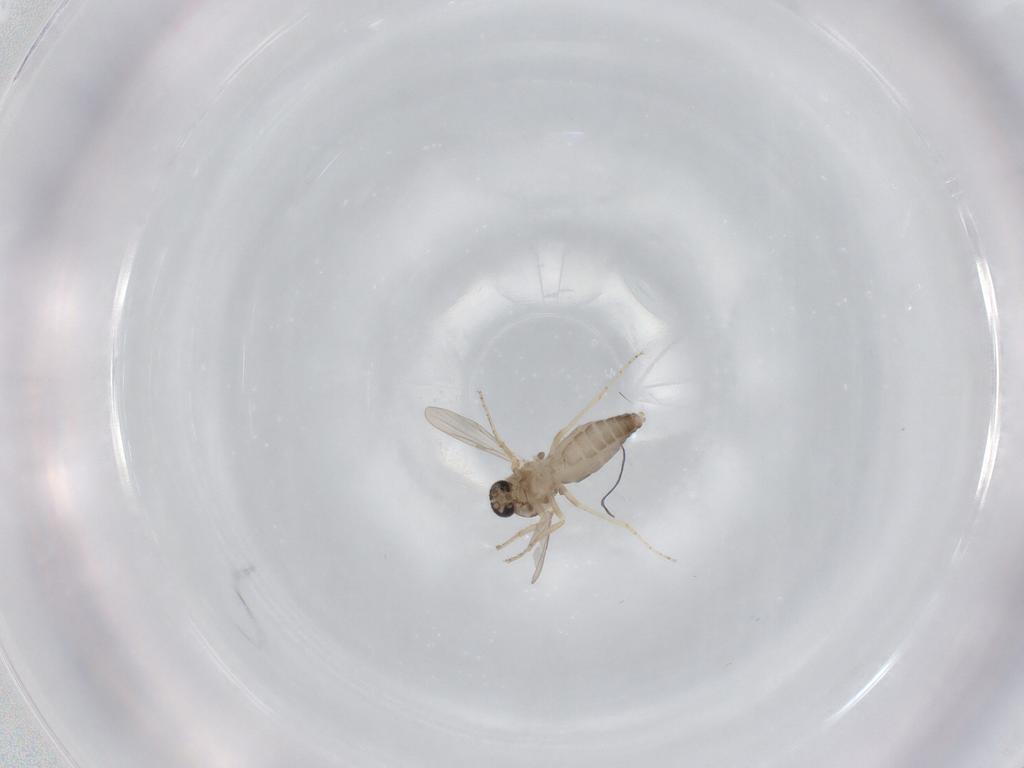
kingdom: Animalia
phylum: Arthropoda
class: Insecta
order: Diptera
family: Ceratopogonidae
